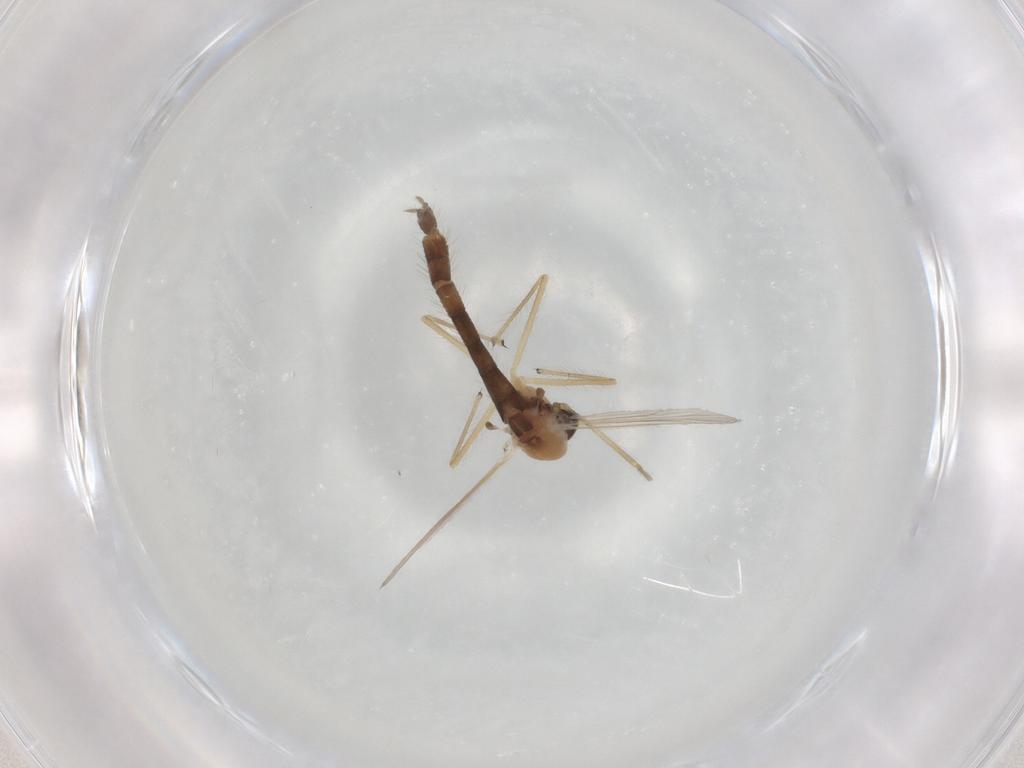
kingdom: Animalia
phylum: Arthropoda
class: Insecta
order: Diptera
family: Chironomidae
